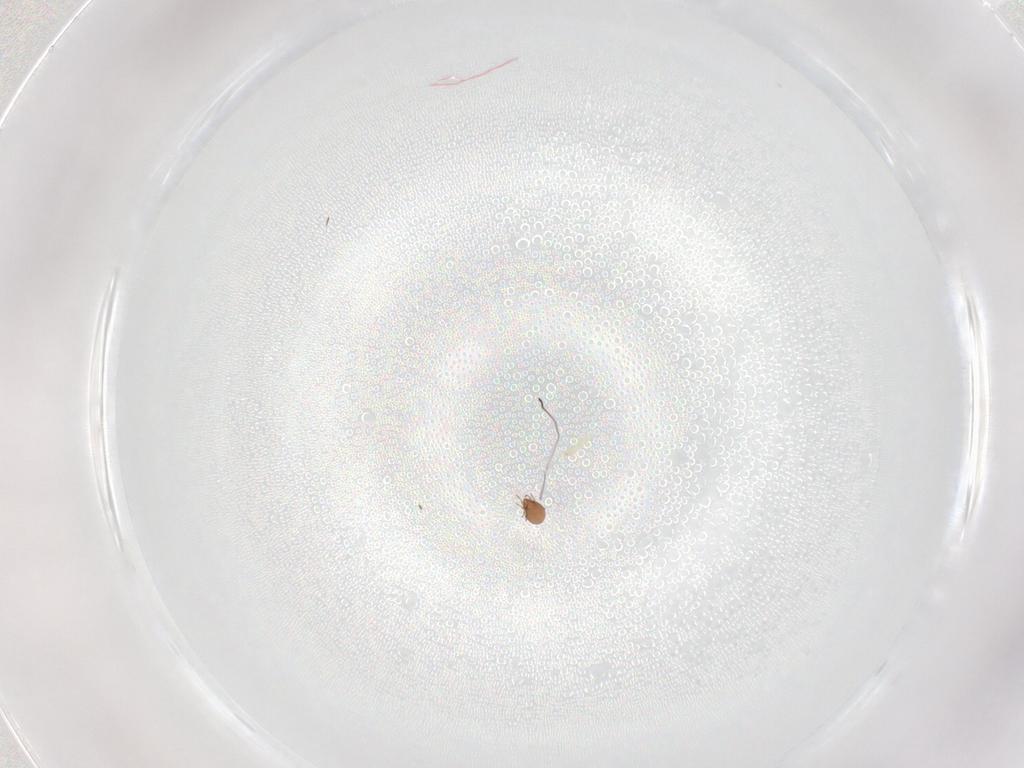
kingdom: Animalia
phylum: Arthropoda
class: Arachnida
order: Sarcoptiformes
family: Astegistidae
